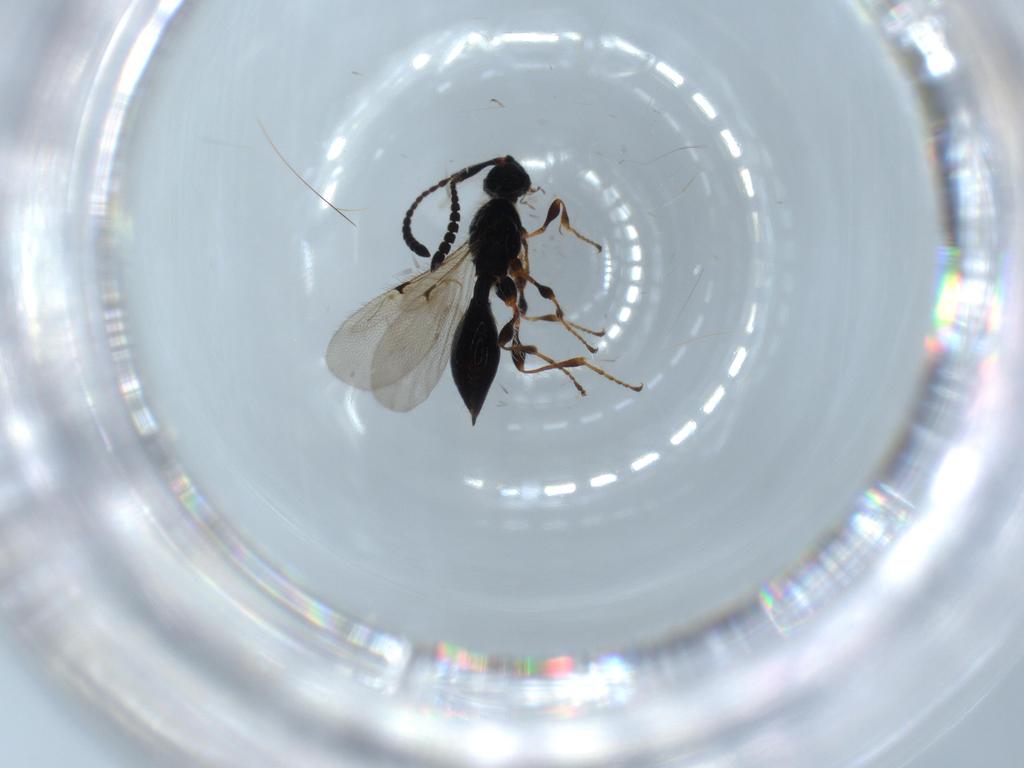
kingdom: Animalia
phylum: Arthropoda
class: Insecta
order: Hymenoptera
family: Diapriidae
